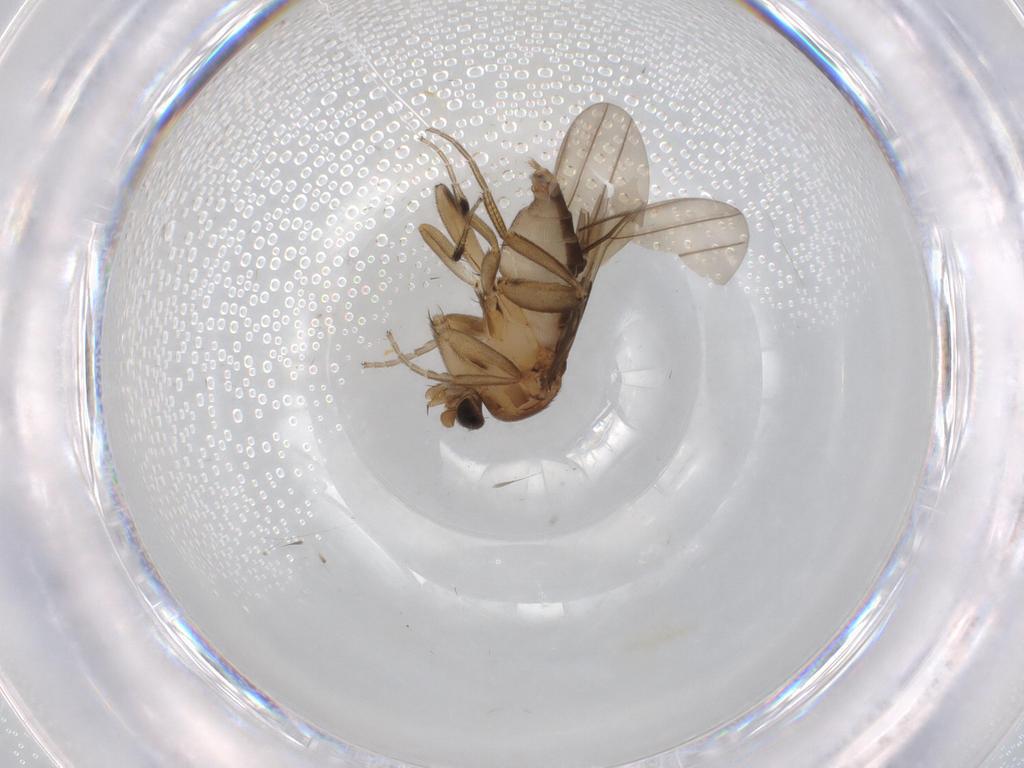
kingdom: Animalia
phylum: Arthropoda
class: Insecta
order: Diptera
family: Phoridae
